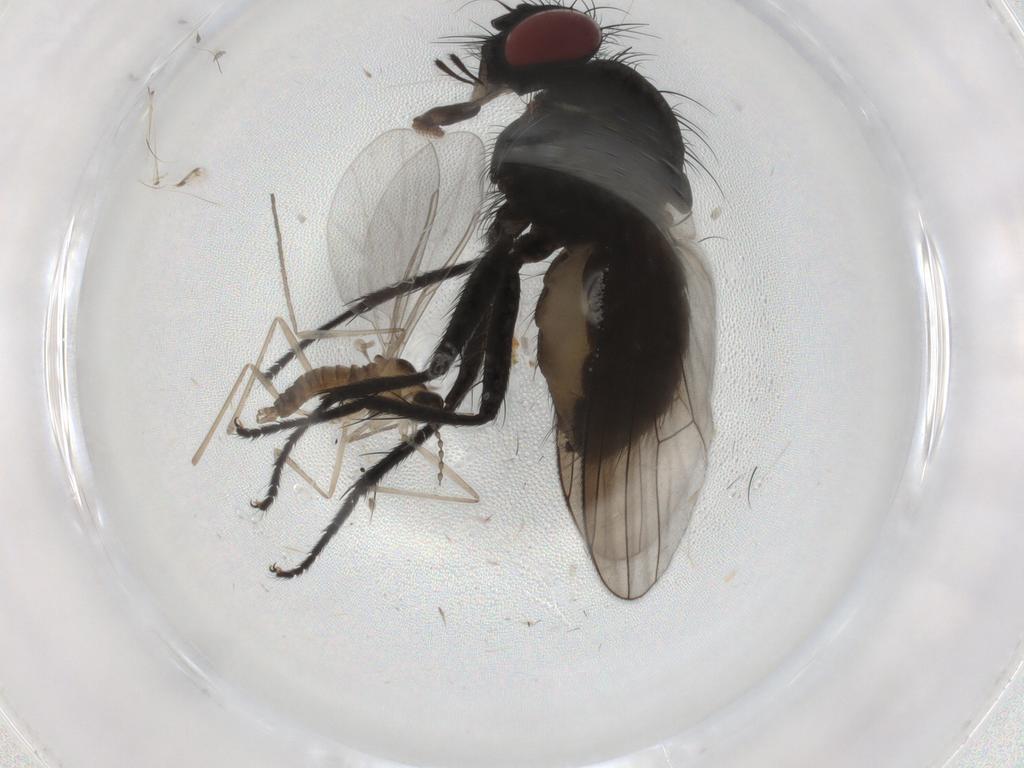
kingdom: Animalia
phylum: Arthropoda
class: Insecta
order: Diptera
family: Muscidae
